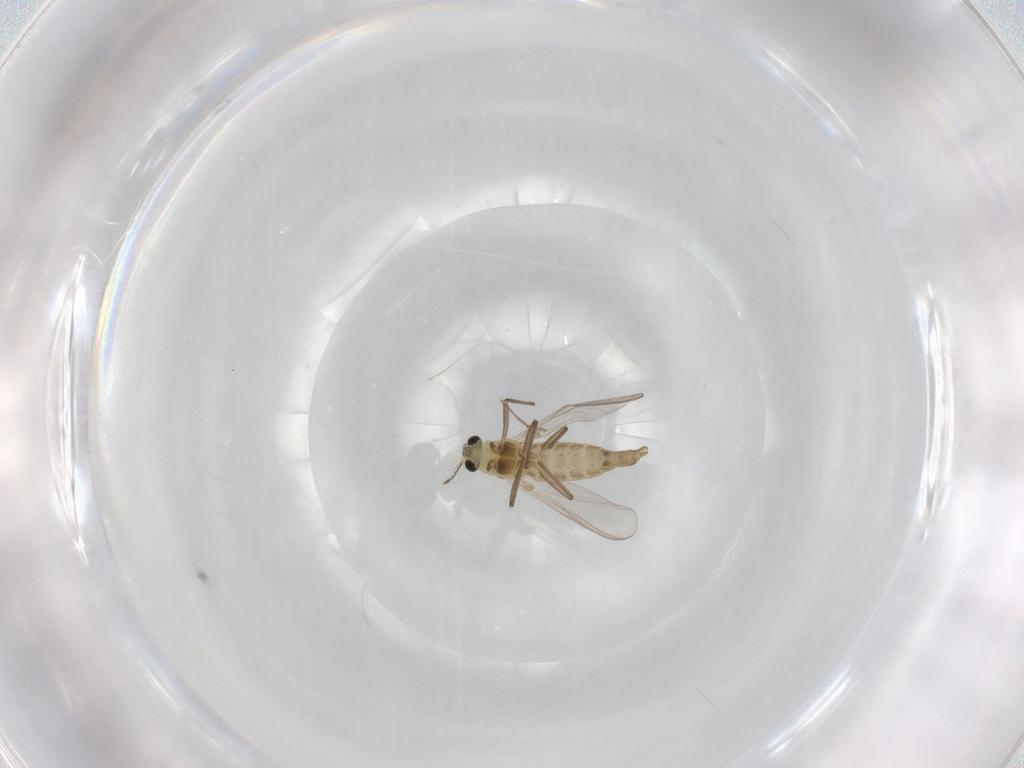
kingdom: Animalia
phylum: Arthropoda
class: Insecta
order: Diptera
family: Chironomidae
